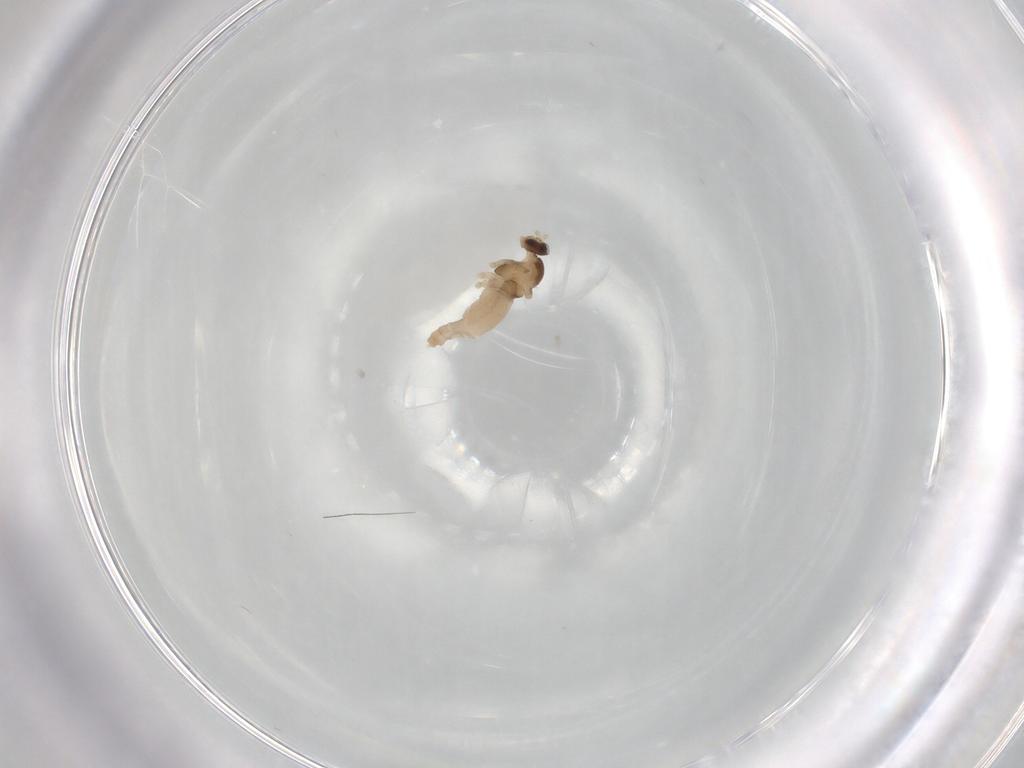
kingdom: Animalia
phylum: Arthropoda
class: Insecta
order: Diptera
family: Cecidomyiidae
